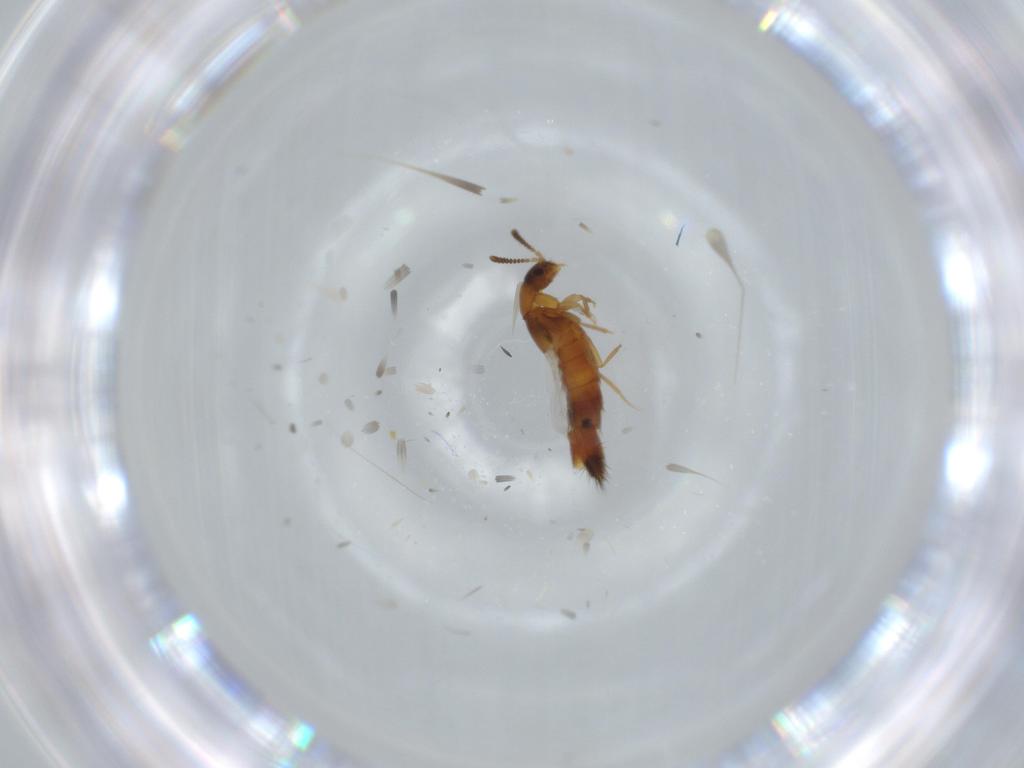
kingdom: Animalia
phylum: Arthropoda
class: Insecta
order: Coleoptera
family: Staphylinidae
